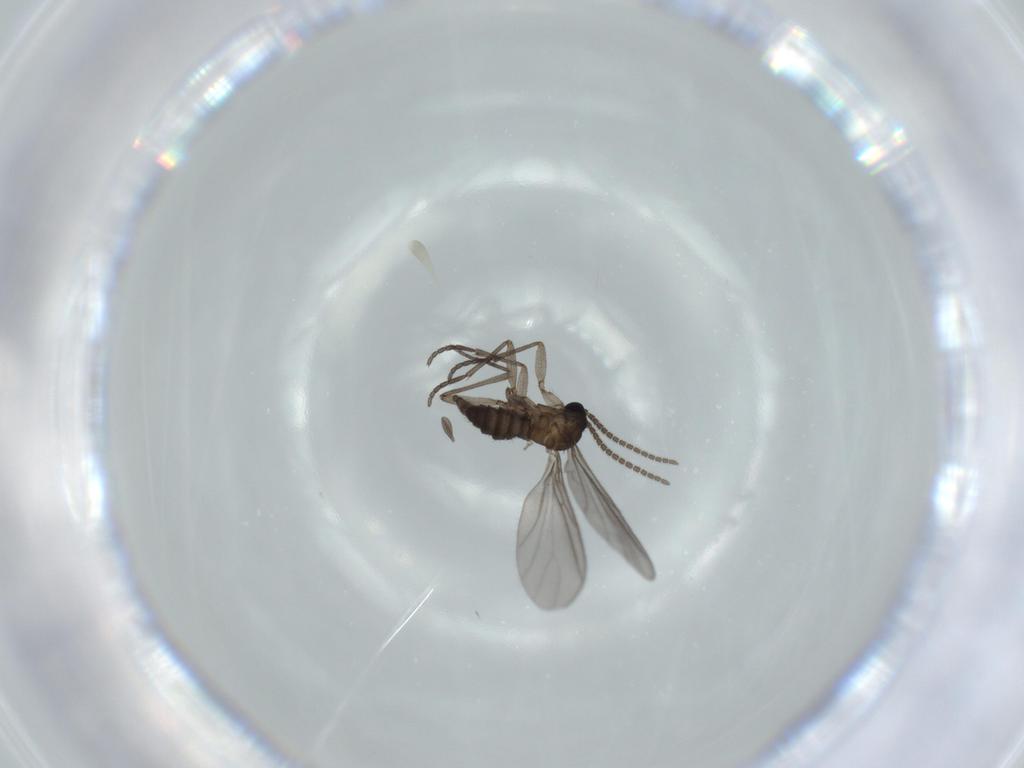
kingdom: Animalia
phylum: Arthropoda
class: Insecta
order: Diptera
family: Sciaridae
